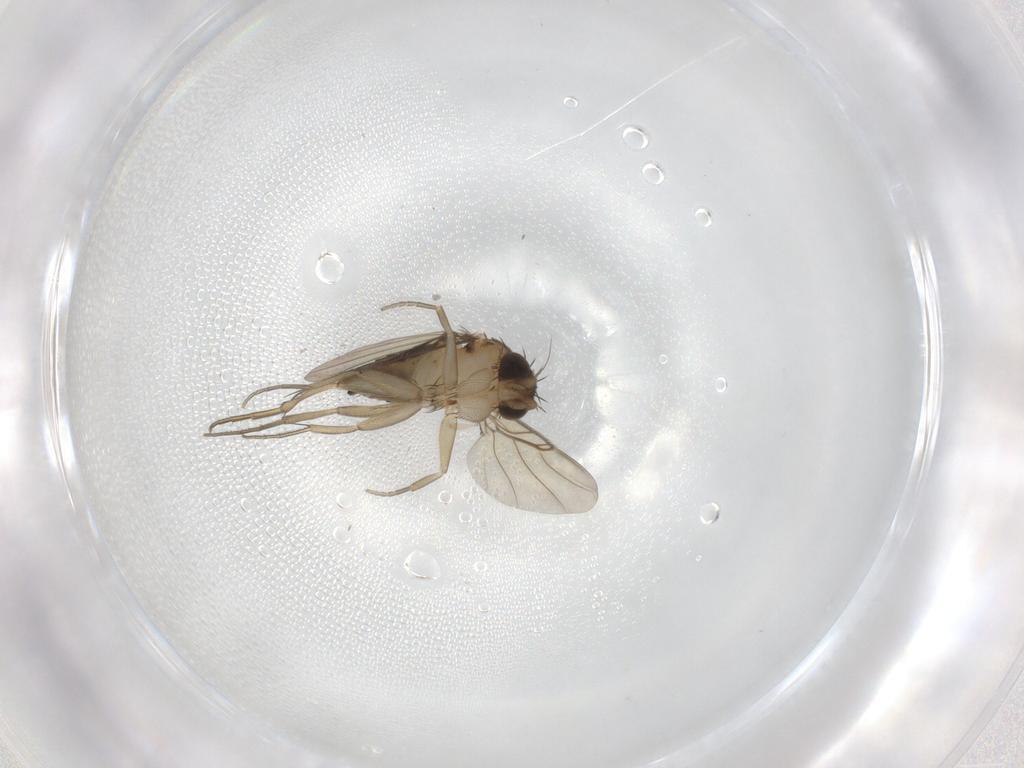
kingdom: Animalia
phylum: Arthropoda
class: Insecta
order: Diptera
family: Phoridae
